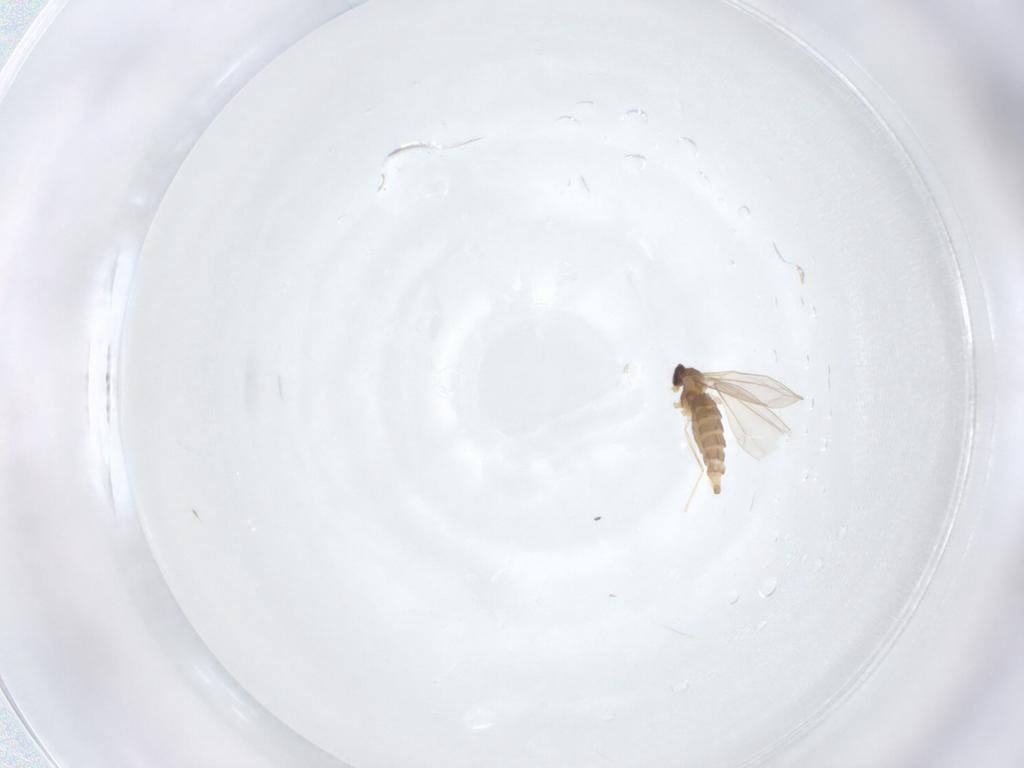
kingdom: Animalia
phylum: Arthropoda
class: Insecta
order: Diptera
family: Cecidomyiidae
